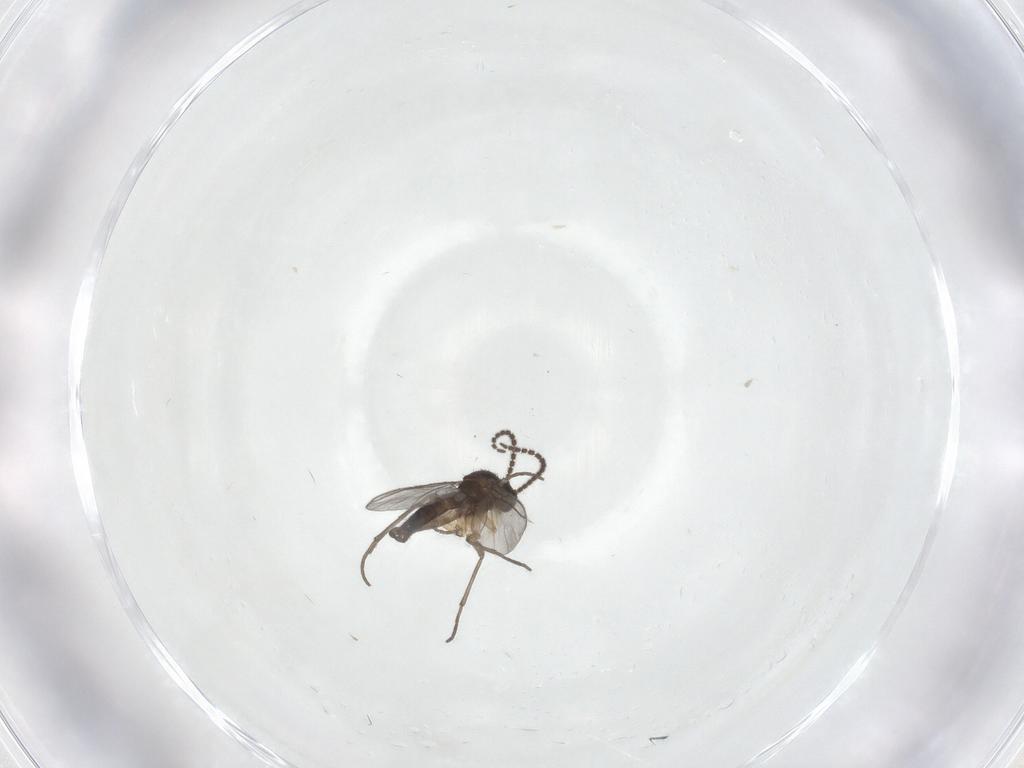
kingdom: Animalia
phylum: Arthropoda
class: Insecta
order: Diptera
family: Sciaridae
